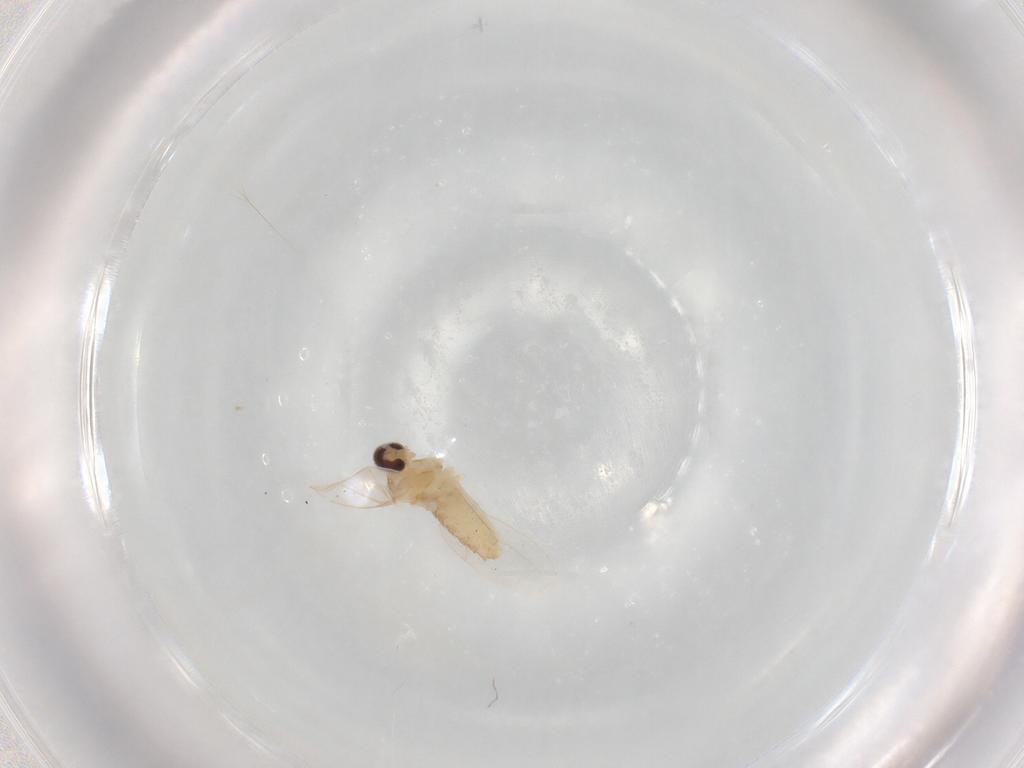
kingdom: Animalia
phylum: Arthropoda
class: Insecta
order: Diptera
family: Cecidomyiidae
